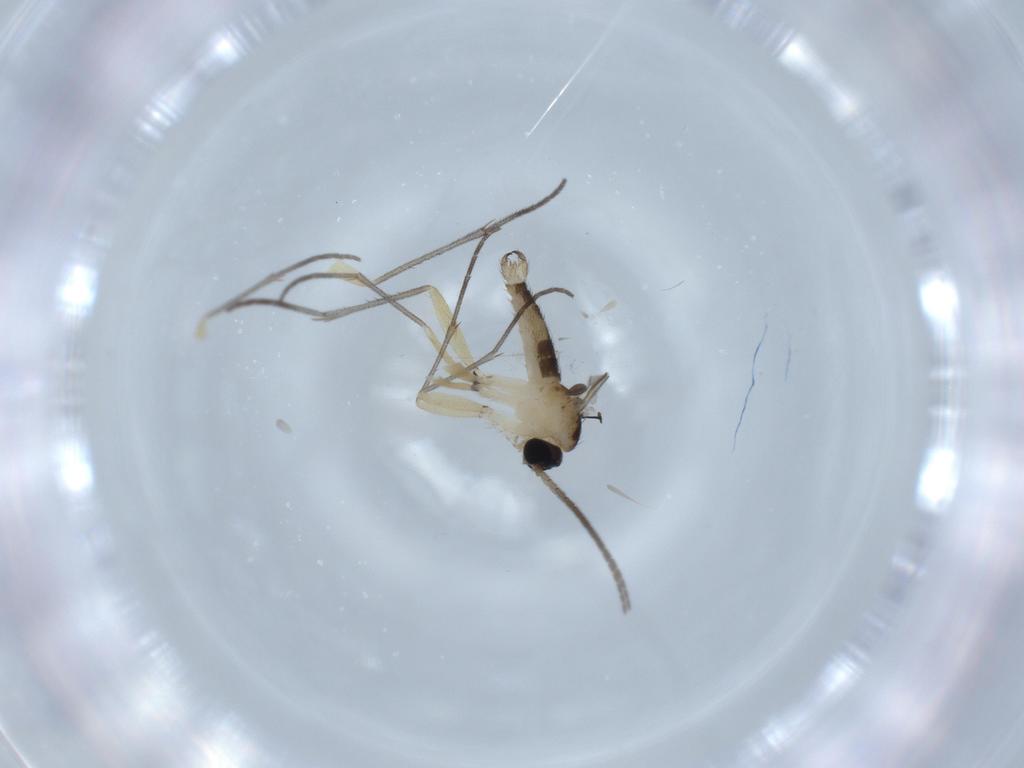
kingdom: Animalia
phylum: Arthropoda
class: Insecta
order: Diptera
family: Sciaridae
